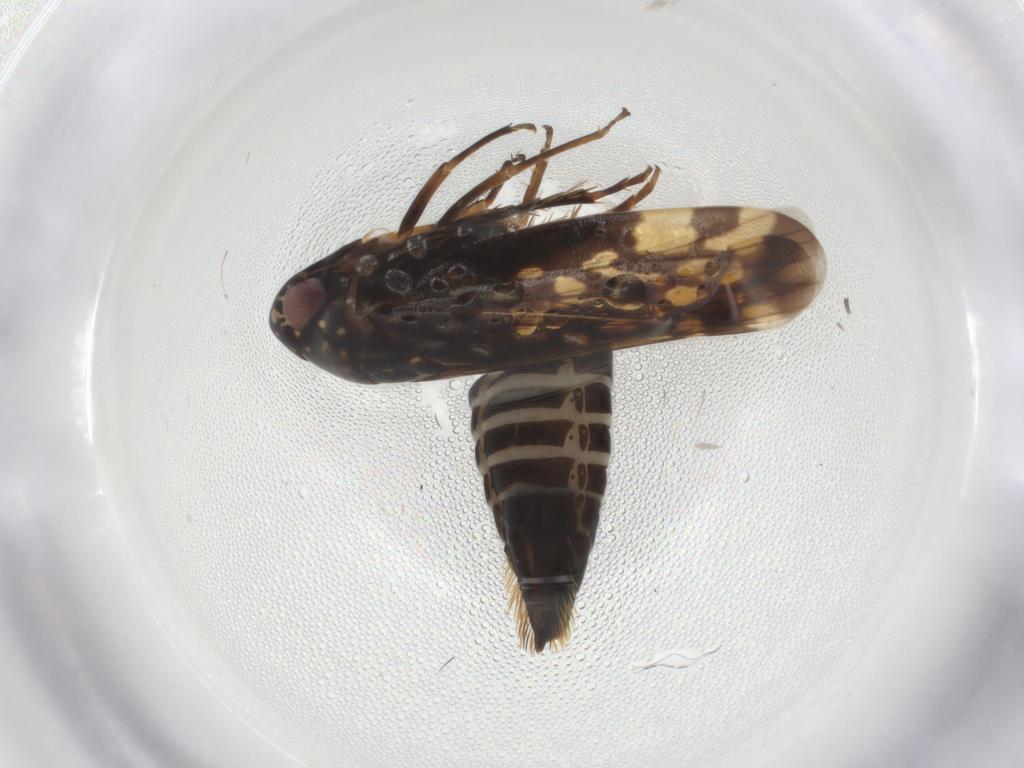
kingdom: Animalia
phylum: Arthropoda
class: Insecta
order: Hemiptera
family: Cicadellidae
